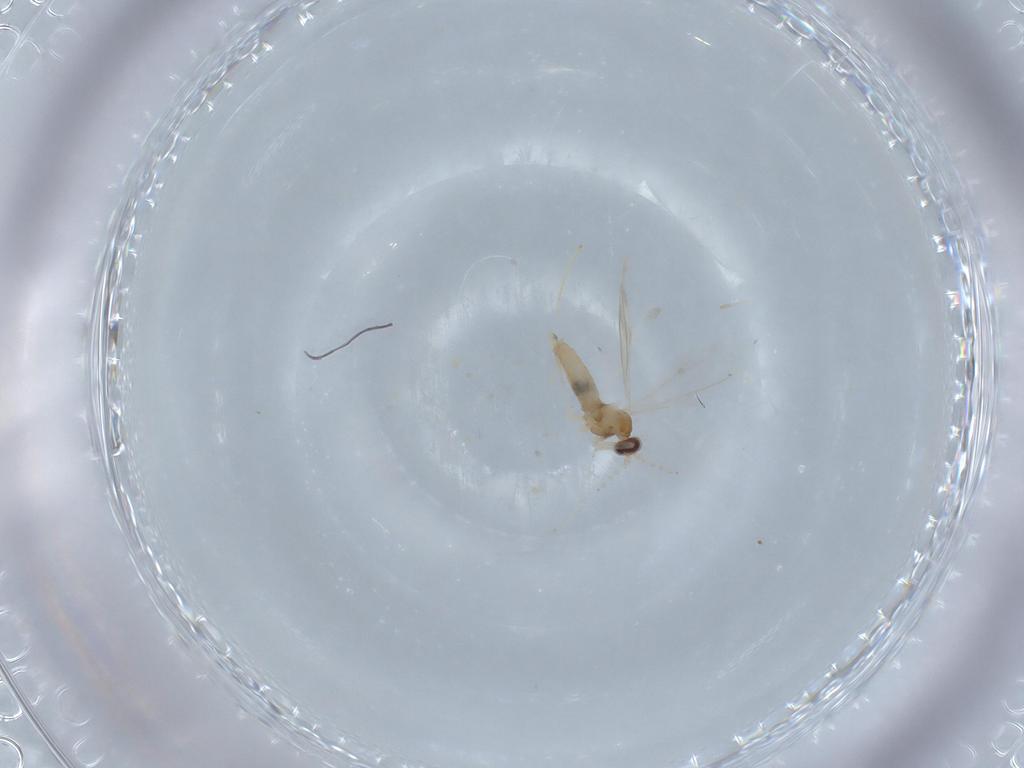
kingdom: Animalia
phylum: Arthropoda
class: Insecta
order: Diptera
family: Cecidomyiidae
